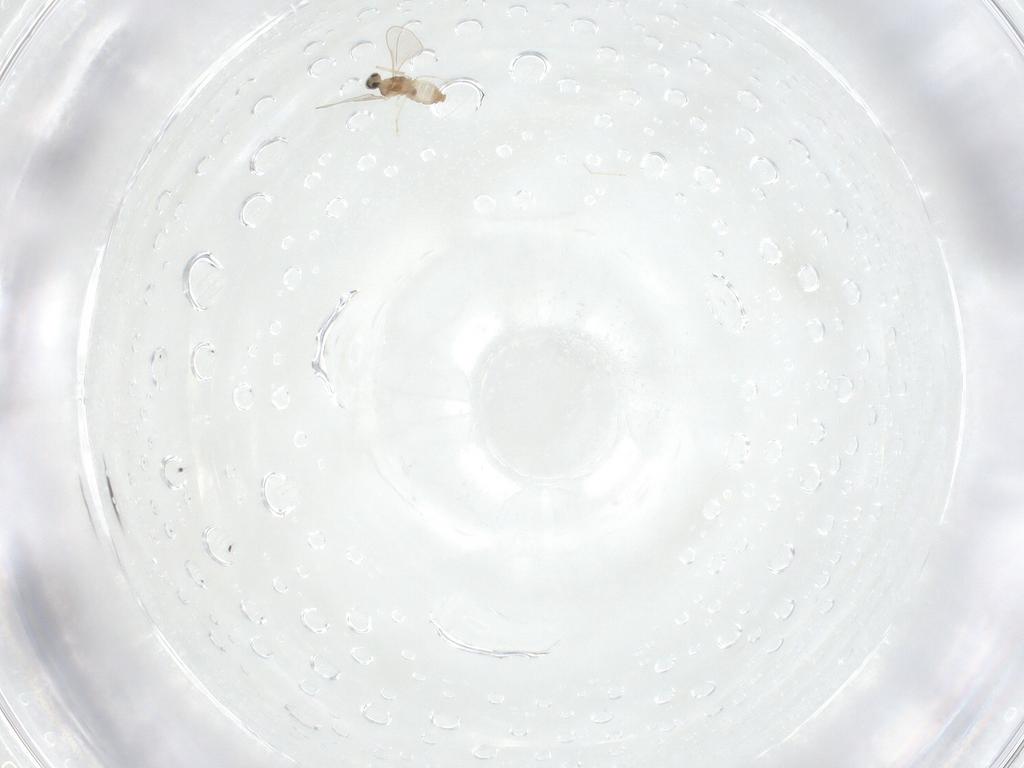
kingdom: Animalia
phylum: Arthropoda
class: Insecta
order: Diptera
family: Cecidomyiidae
